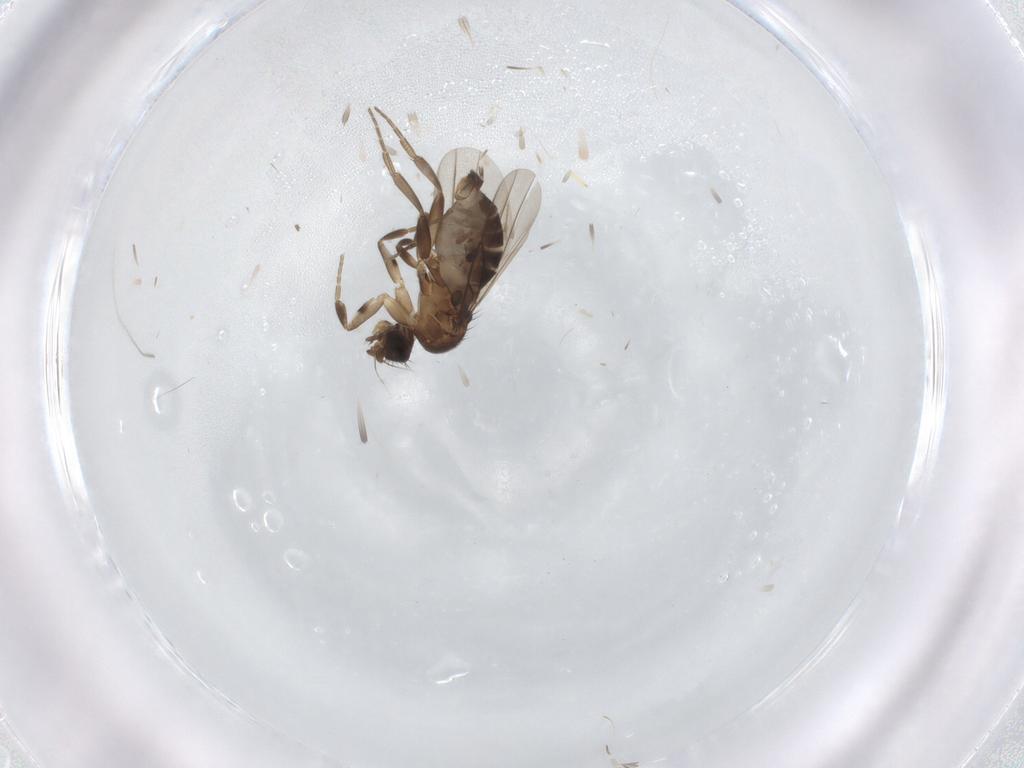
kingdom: Animalia
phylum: Arthropoda
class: Insecta
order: Diptera
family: Phoridae
